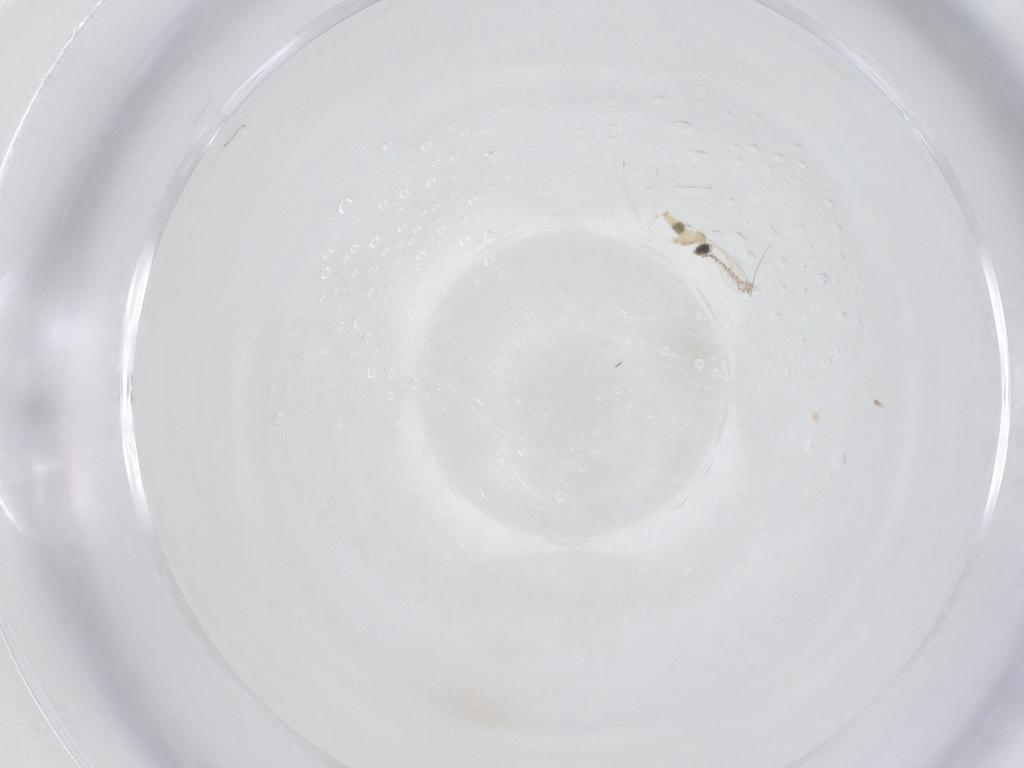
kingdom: Animalia
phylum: Arthropoda
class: Insecta
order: Diptera
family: Cecidomyiidae
